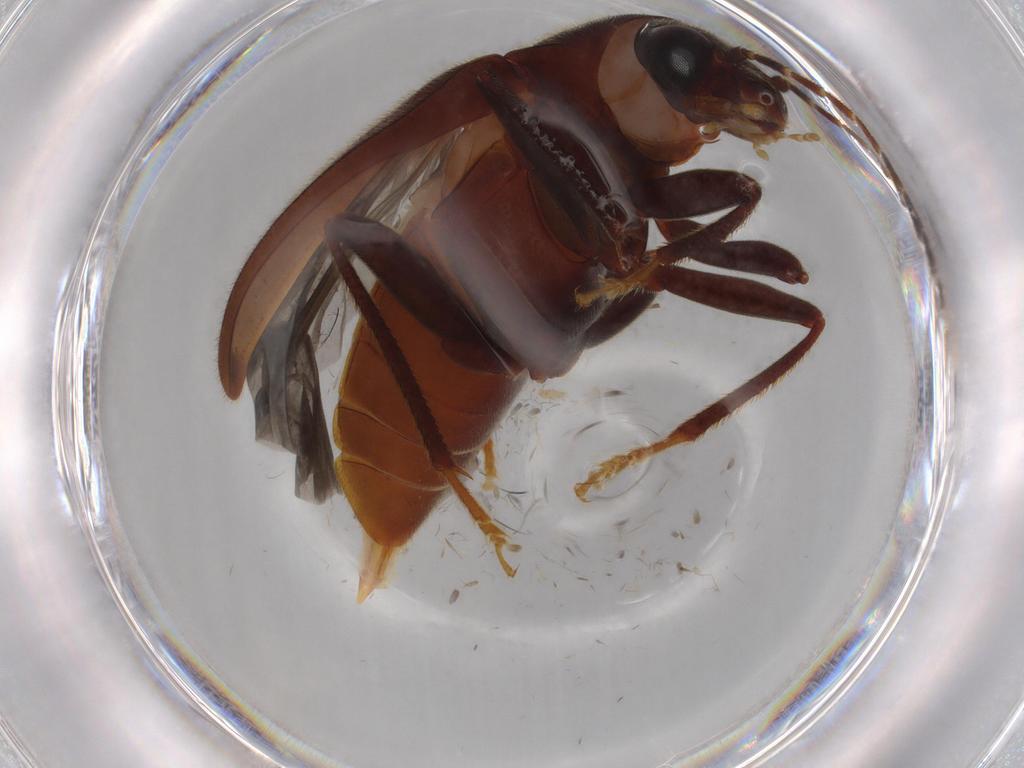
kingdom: Animalia
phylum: Arthropoda
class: Insecta
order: Coleoptera
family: Ptilodactylidae
